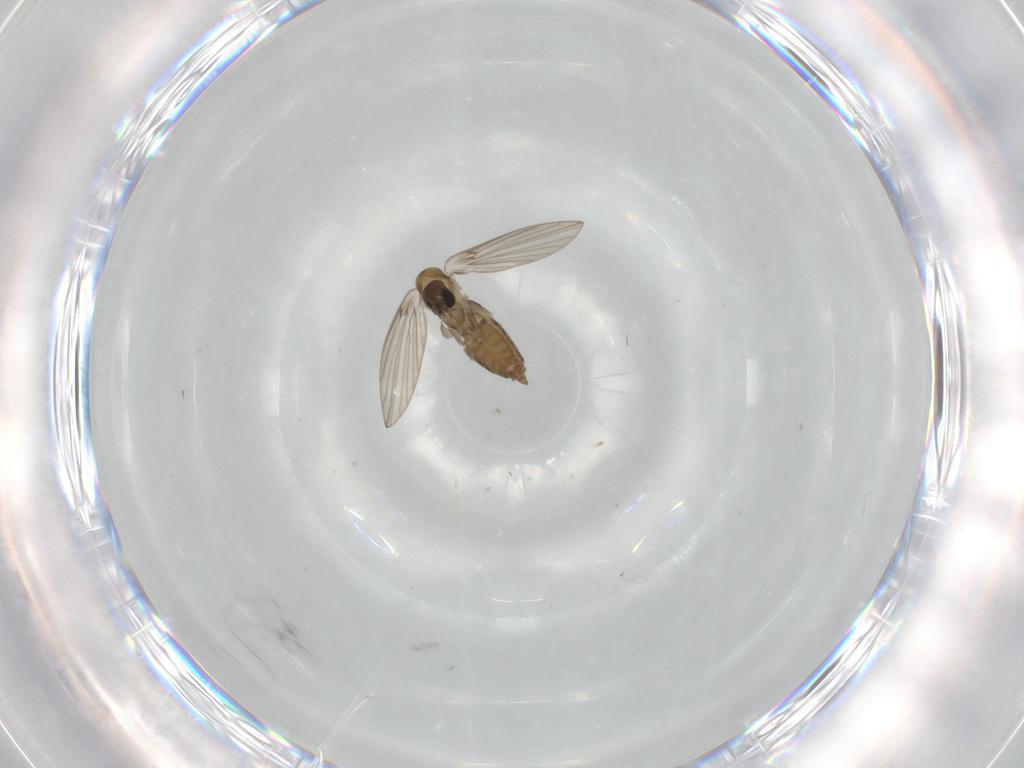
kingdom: Animalia
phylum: Arthropoda
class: Insecta
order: Diptera
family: Psychodidae
